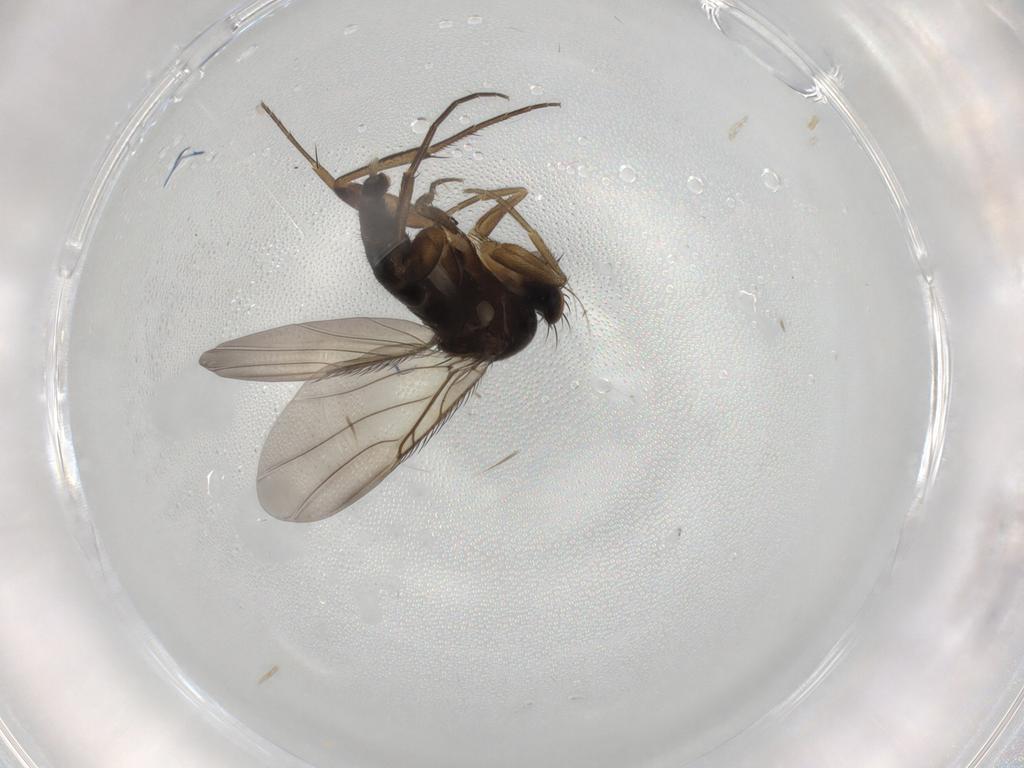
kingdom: Animalia
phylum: Arthropoda
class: Insecta
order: Diptera
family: Phoridae
